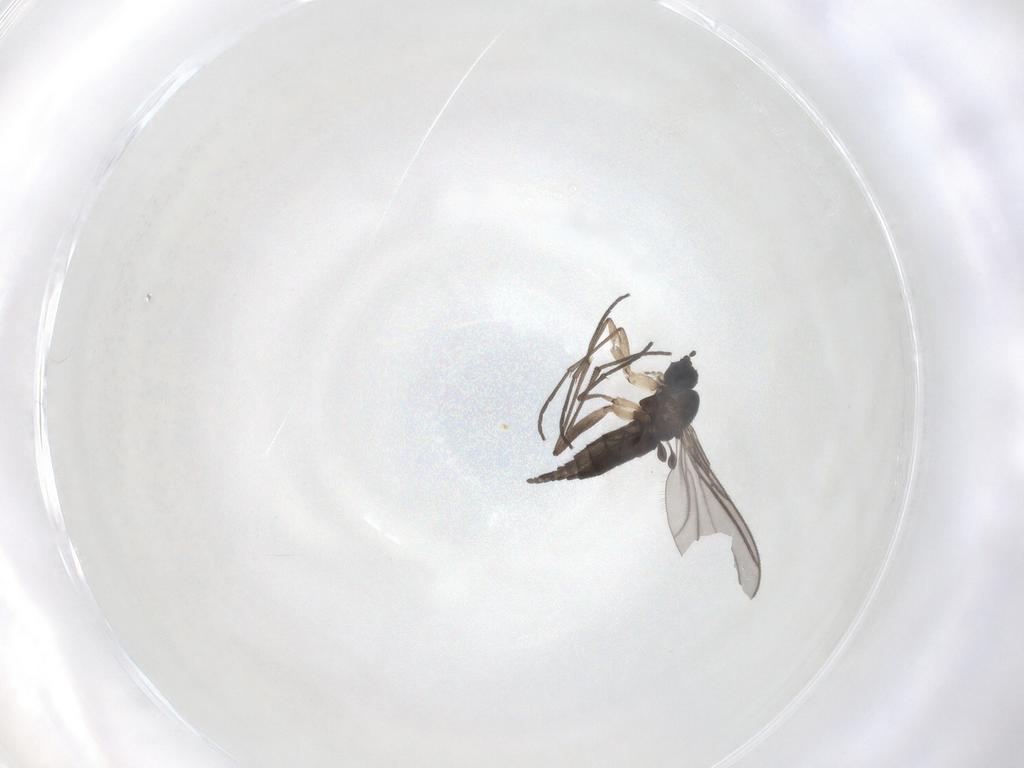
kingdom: Animalia
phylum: Arthropoda
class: Insecta
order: Diptera
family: Sciaridae
